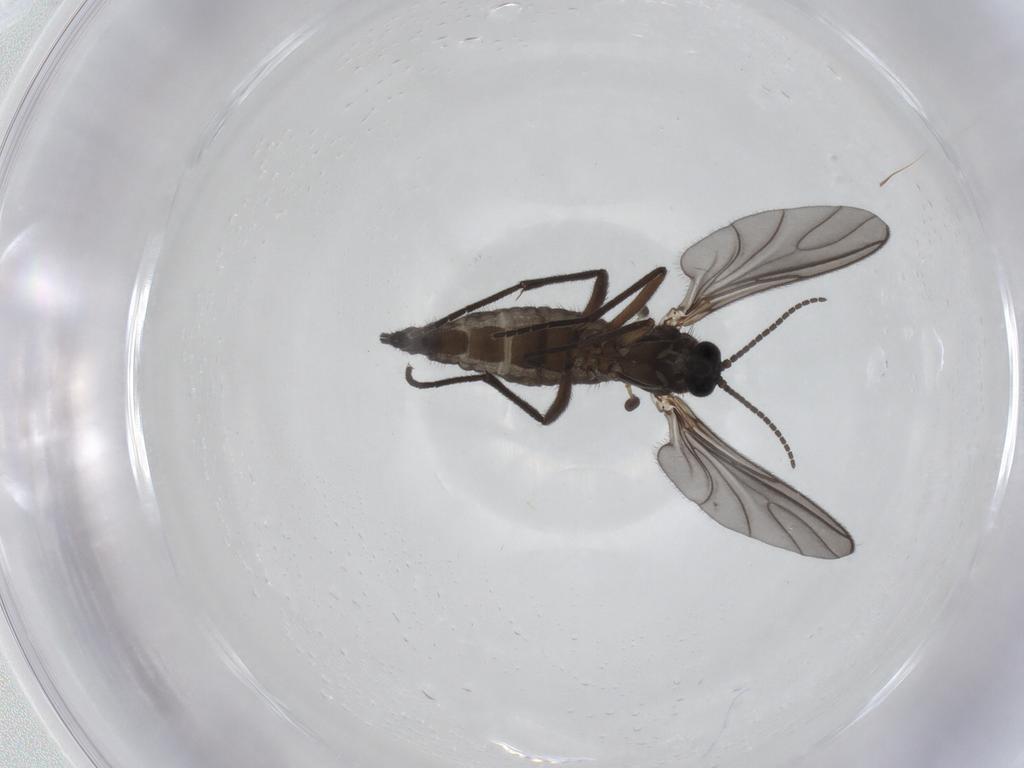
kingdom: Animalia
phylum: Arthropoda
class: Insecta
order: Diptera
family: Sciaridae
